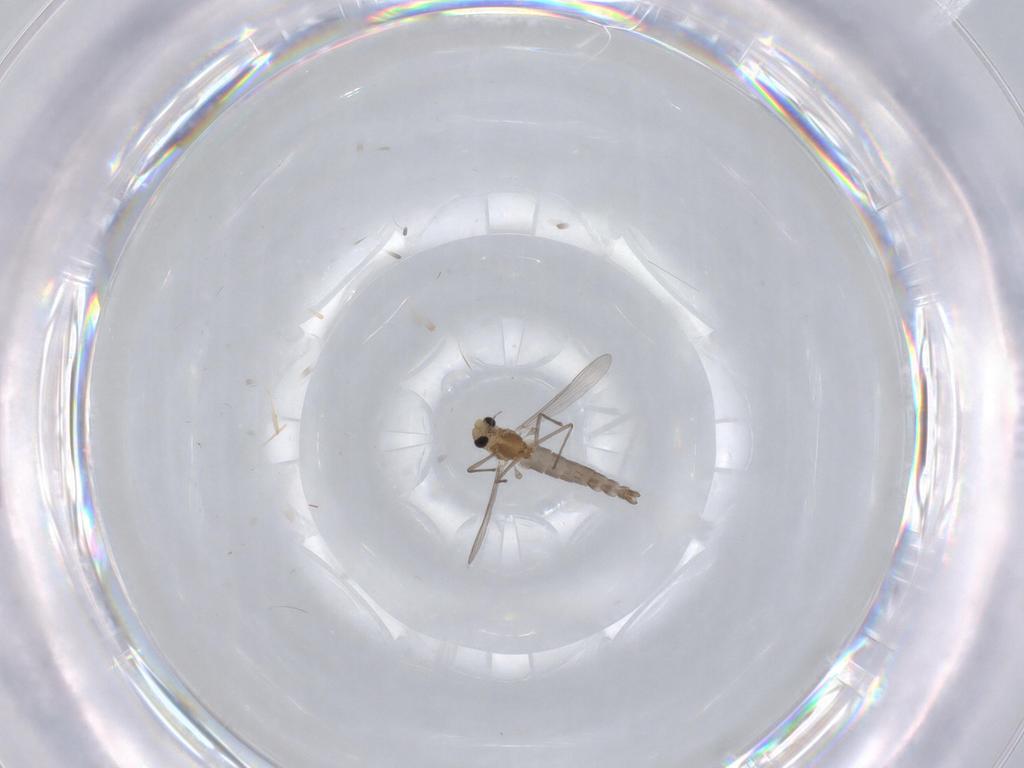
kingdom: Animalia
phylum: Arthropoda
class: Insecta
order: Diptera
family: Chironomidae
